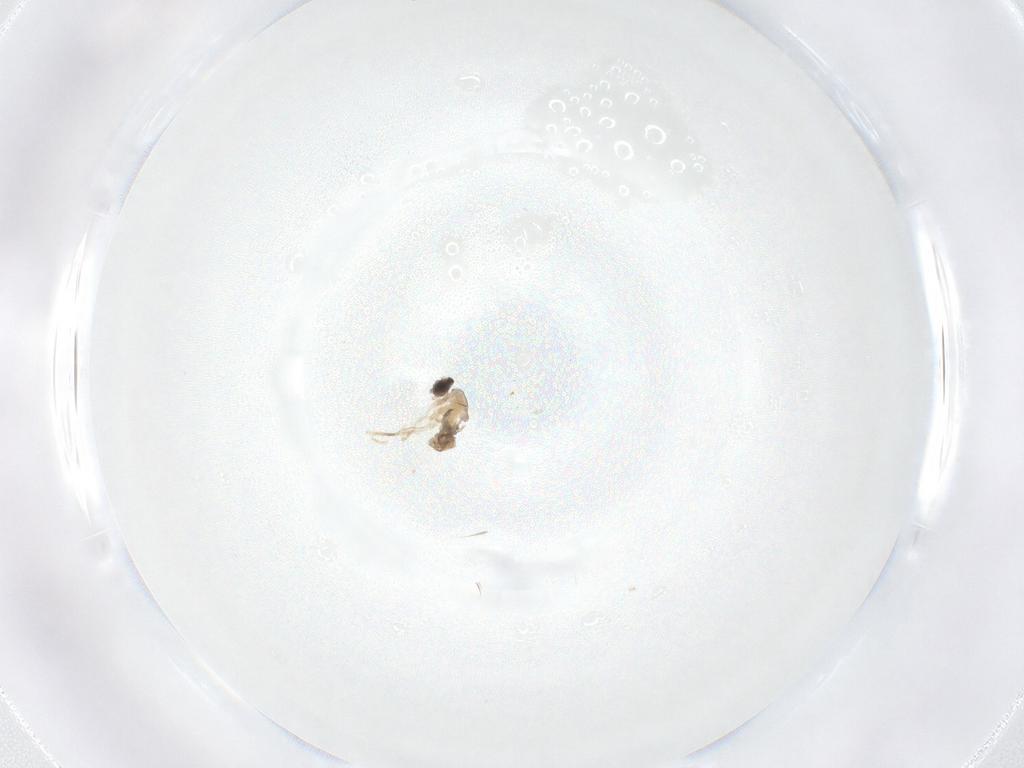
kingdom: Animalia
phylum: Arthropoda
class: Insecta
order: Diptera
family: Cecidomyiidae
